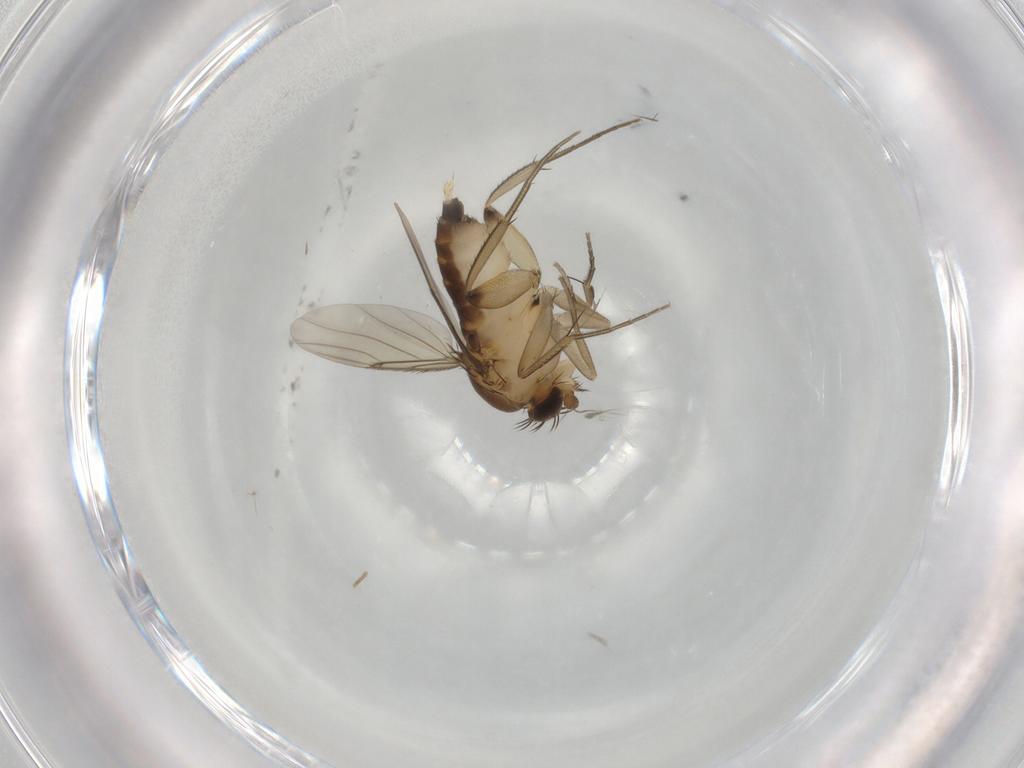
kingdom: Animalia
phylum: Arthropoda
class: Insecta
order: Diptera
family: Phoridae
